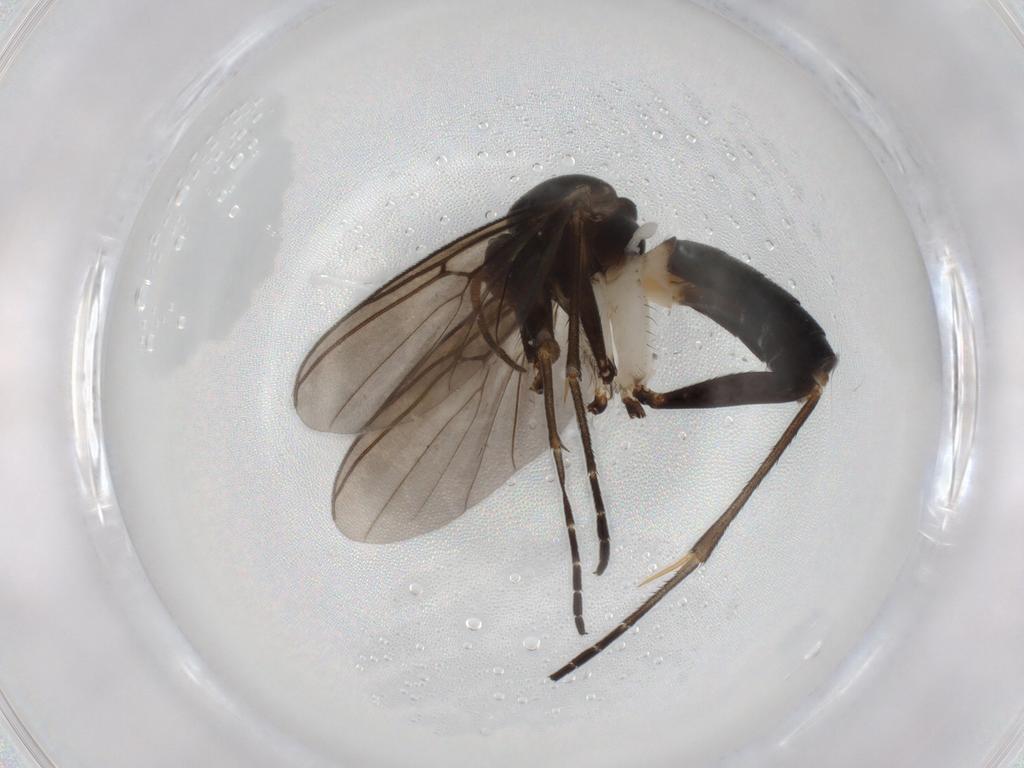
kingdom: Animalia
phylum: Arthropoda
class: Insecta
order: Diptera
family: Mycetophilidae
